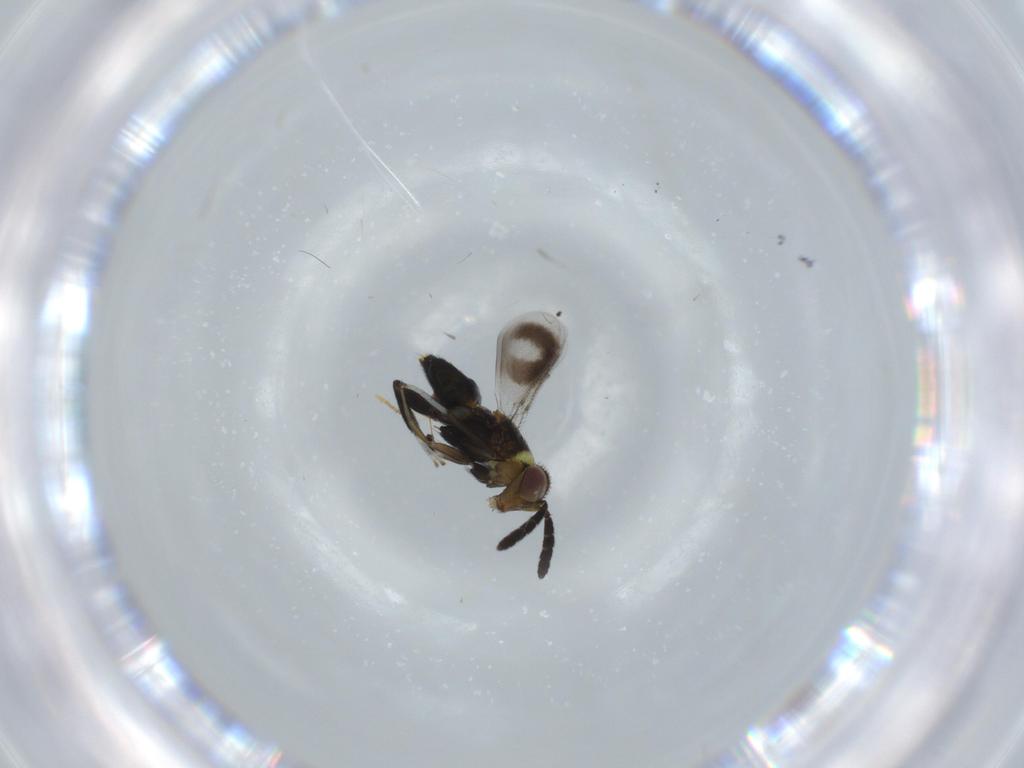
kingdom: Animalia
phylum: Arthropoda
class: Insecta
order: Hymenoptera
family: Aphelinidae
